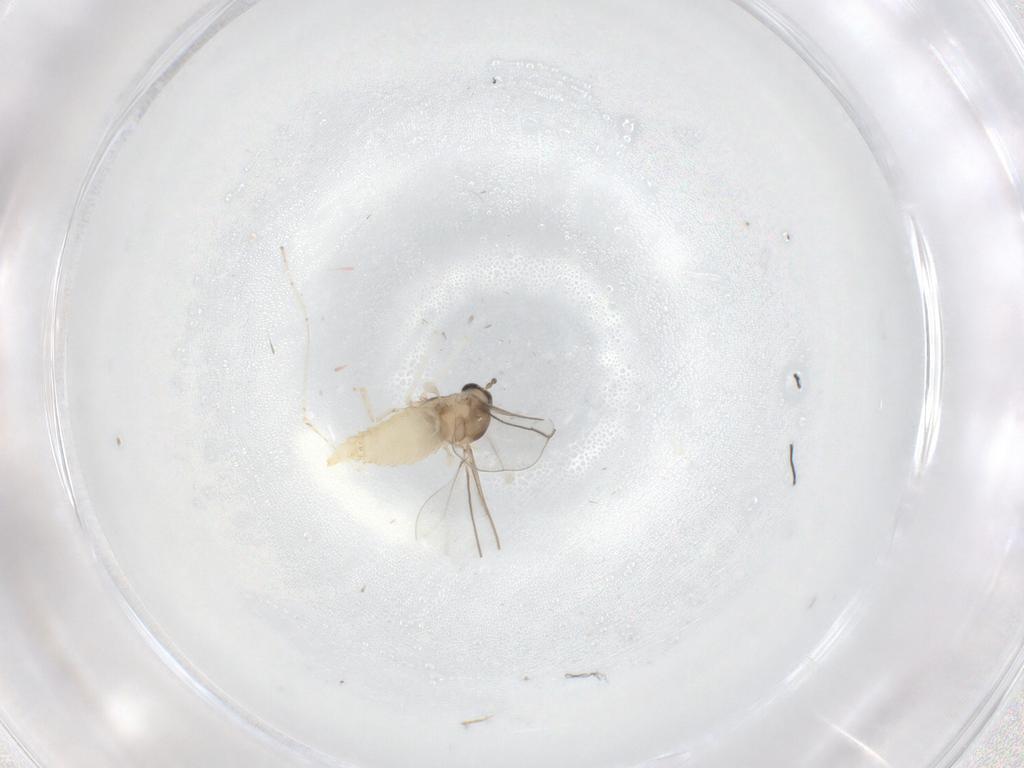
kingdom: Animalia
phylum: Arthropoda
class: Insecta
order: Diptera
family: Cecidomyiidae
